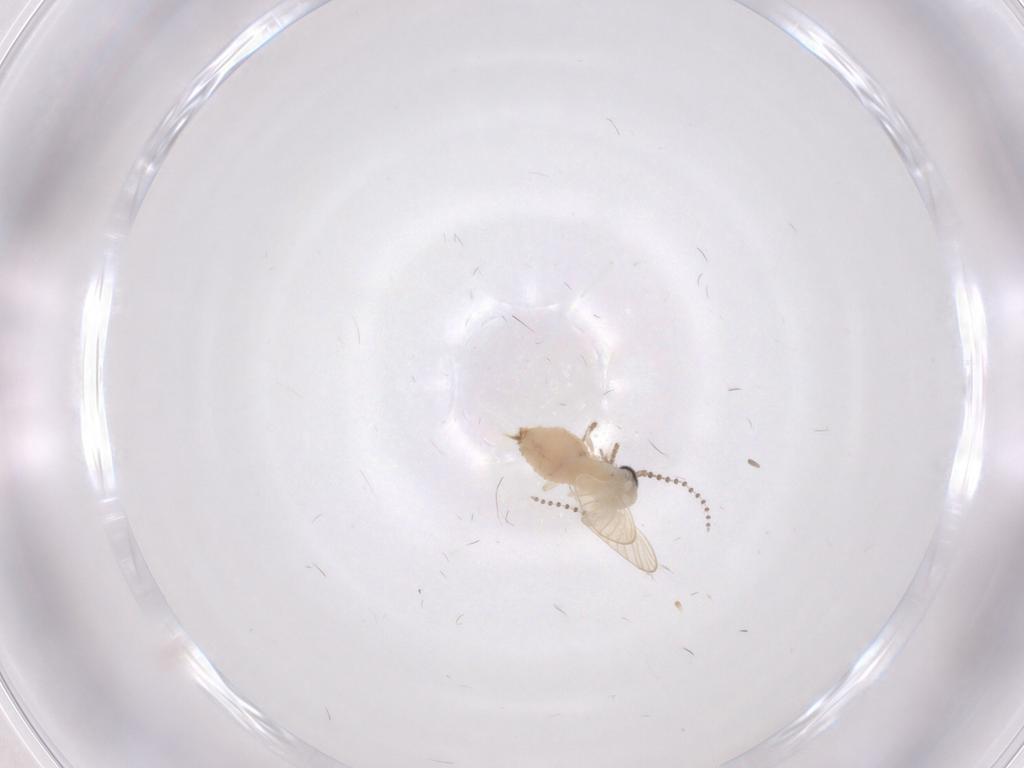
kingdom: Animalia
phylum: Arthropoda
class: Insecta
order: Diptera
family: Psychodidae
